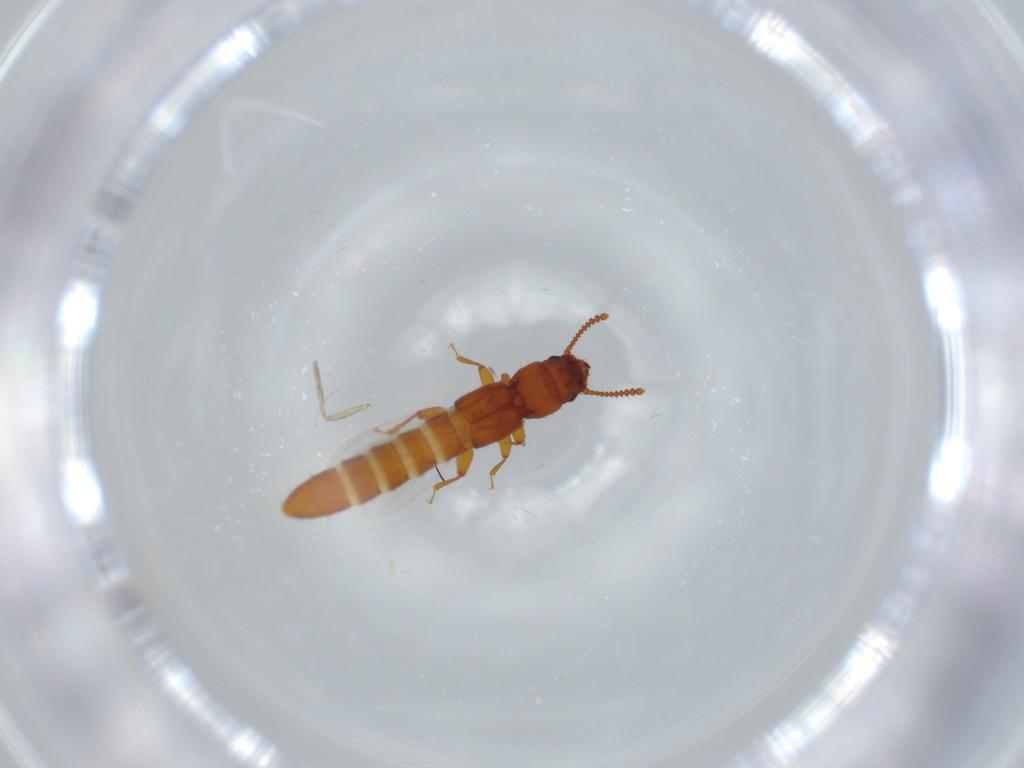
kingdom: Animalia
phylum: Arthropoda
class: Insecta
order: Coleoptera
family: Staphylinidae
